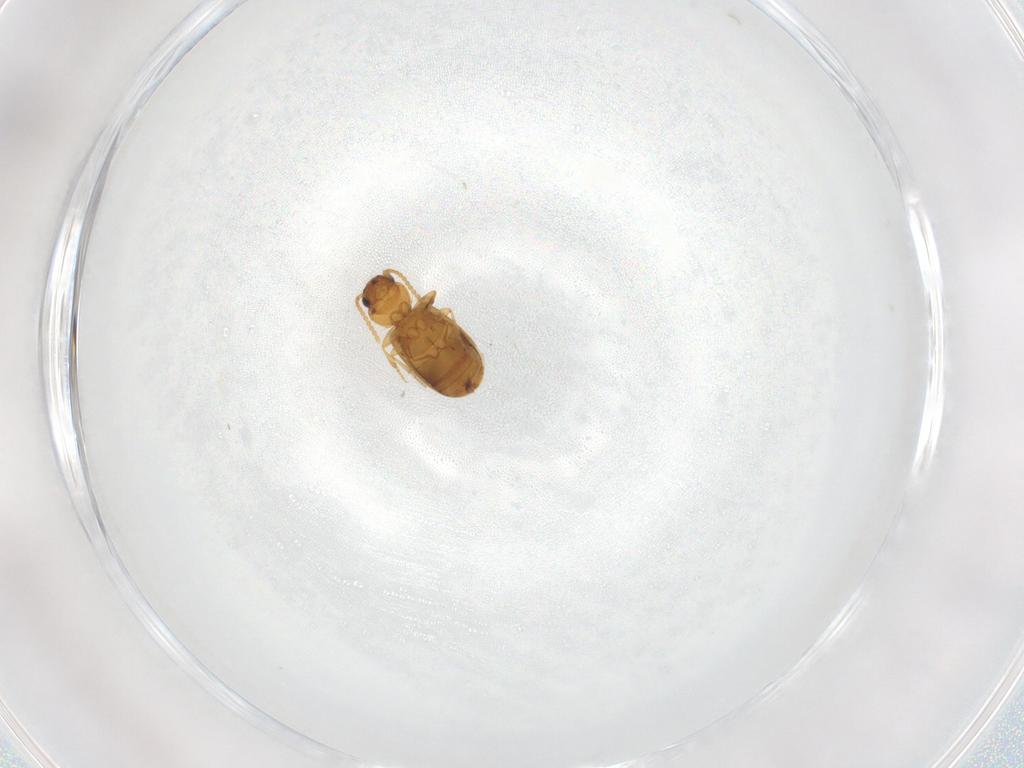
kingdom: Animalia
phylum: Arthropoda
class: Insecta
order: Coleoptera
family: Carabidae
